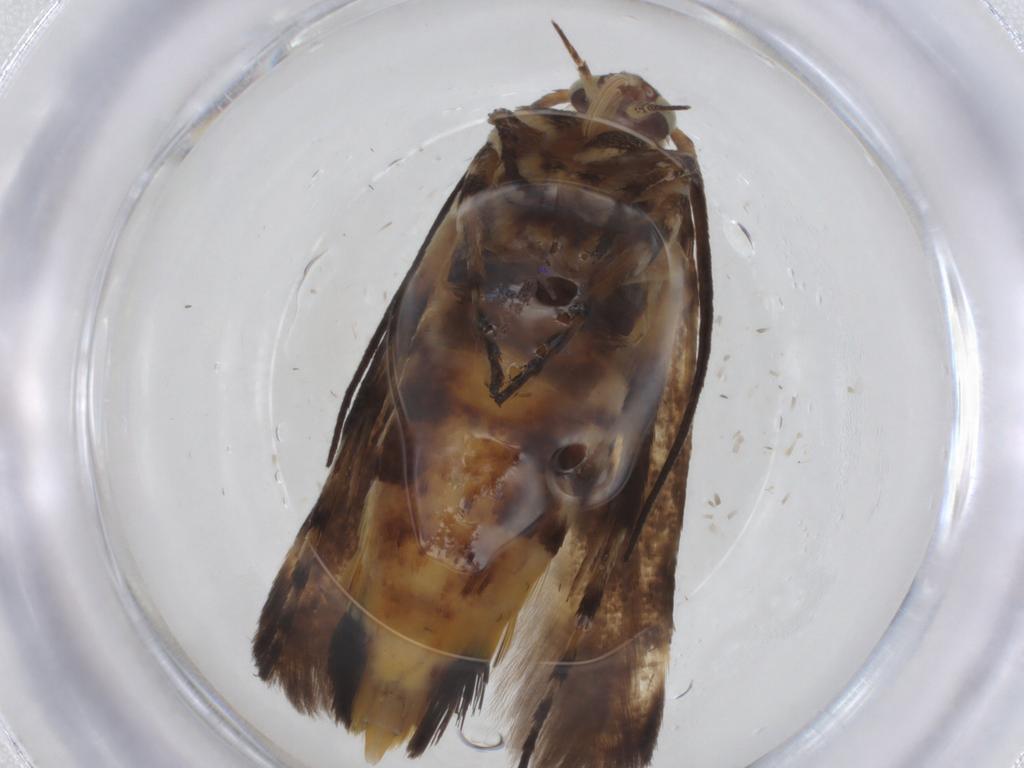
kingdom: Animalia
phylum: Arthropoda
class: Insecta
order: Lepidoptera
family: Scythrididae
